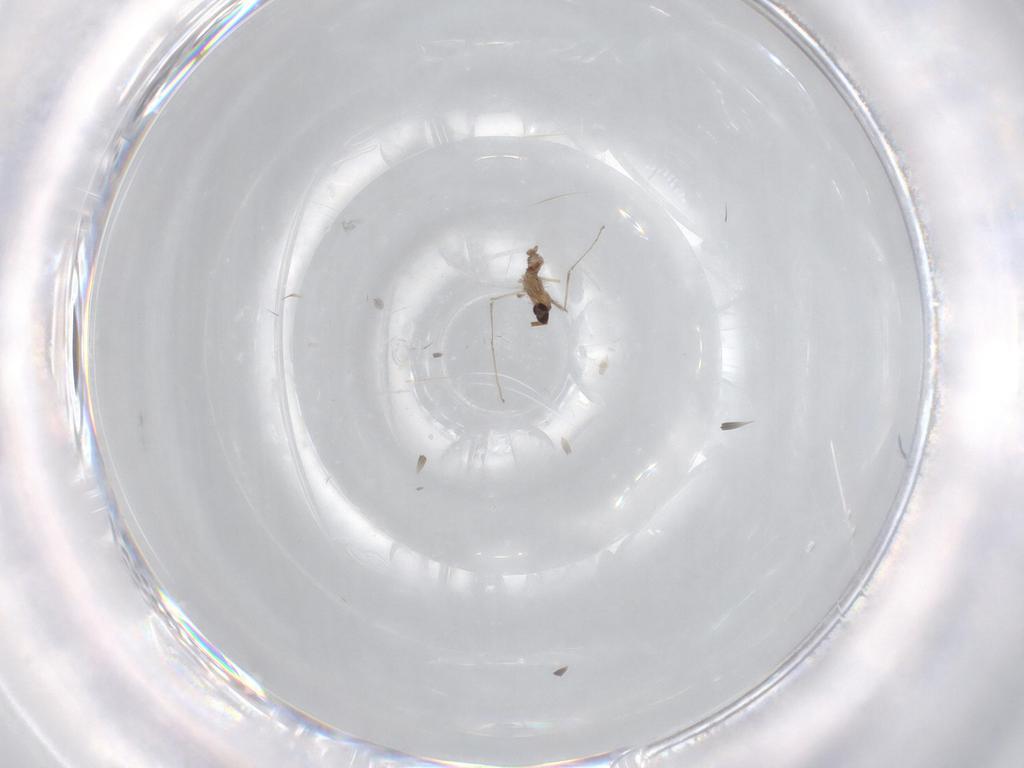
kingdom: Animalia
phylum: Arthropoda
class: Insecta
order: Diptera
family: Cecidomyiidae
